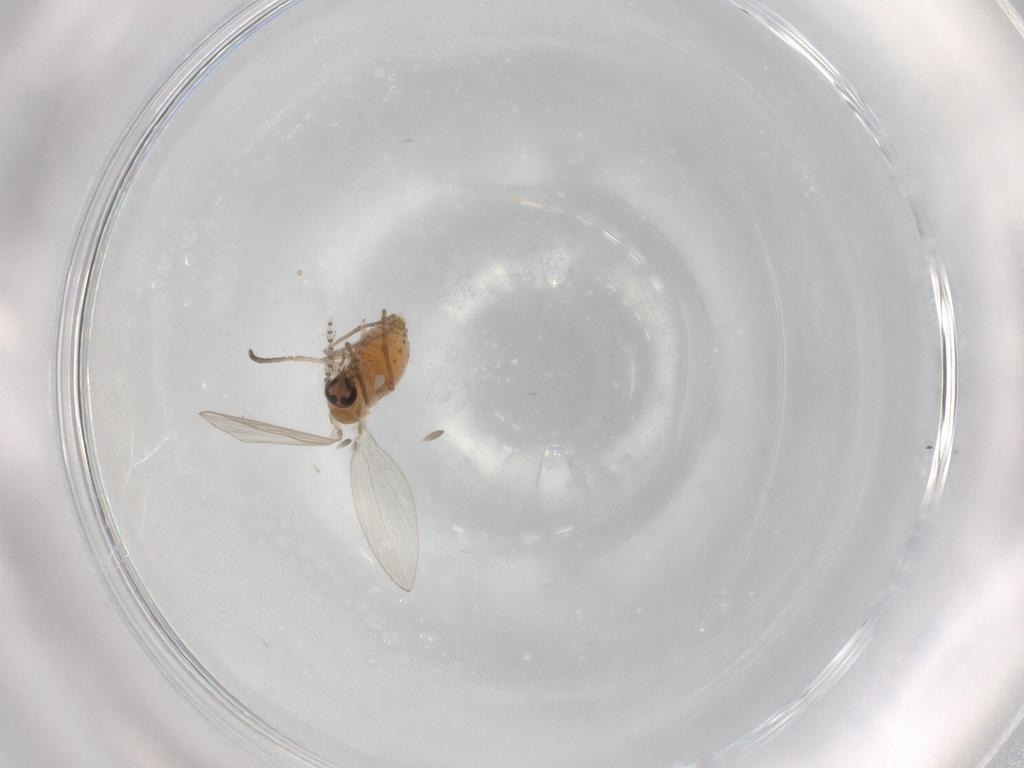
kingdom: Animalia
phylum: Arthropoda
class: Insecta
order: Diptera
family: Psychodidae
